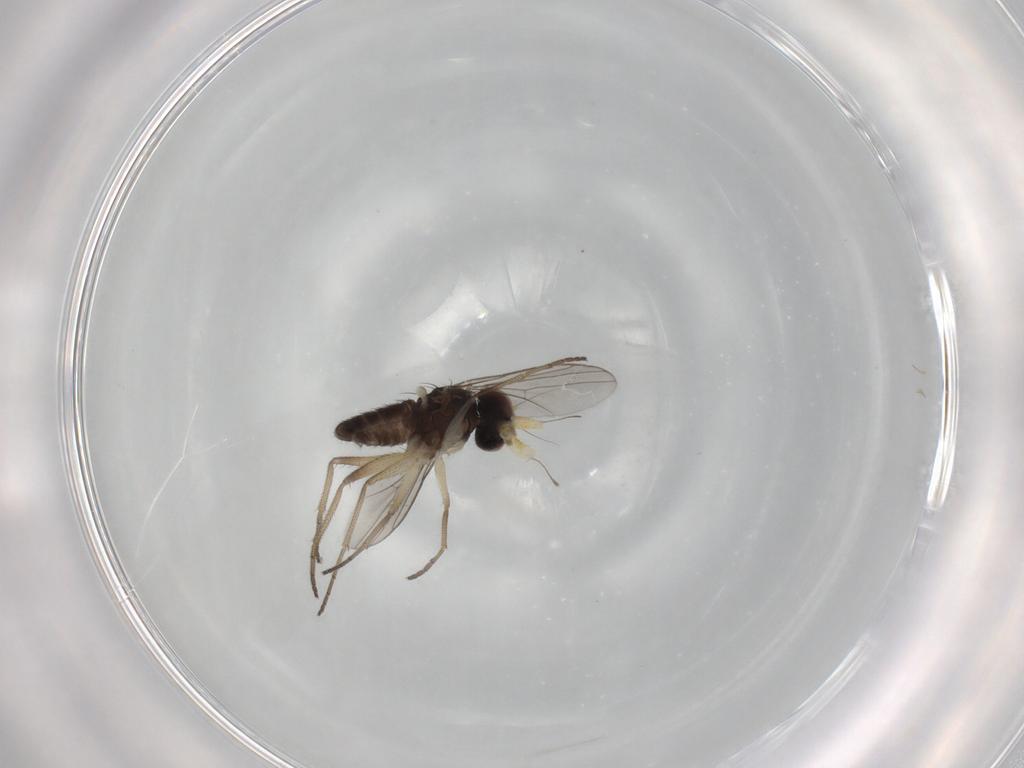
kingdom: Animalia
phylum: Arthropoda
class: Insecta
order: Diptera
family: Dolichopodidae
